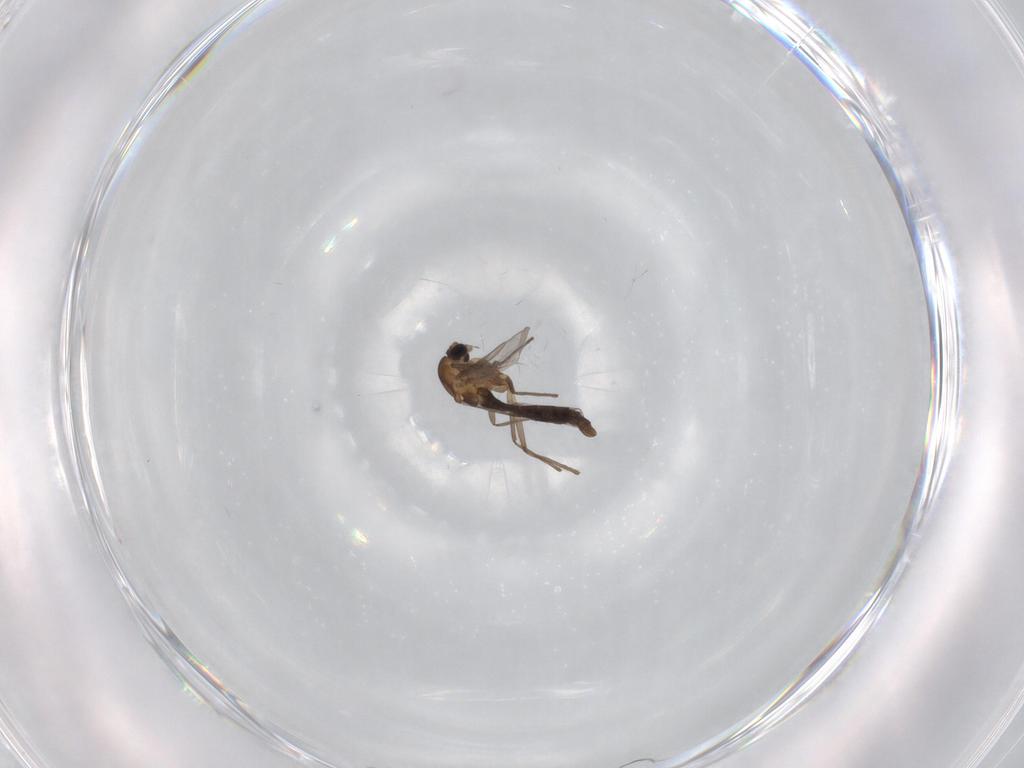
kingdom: Animalia
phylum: Arthropoda
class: Insecta
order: Diptera
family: Chironomidae
